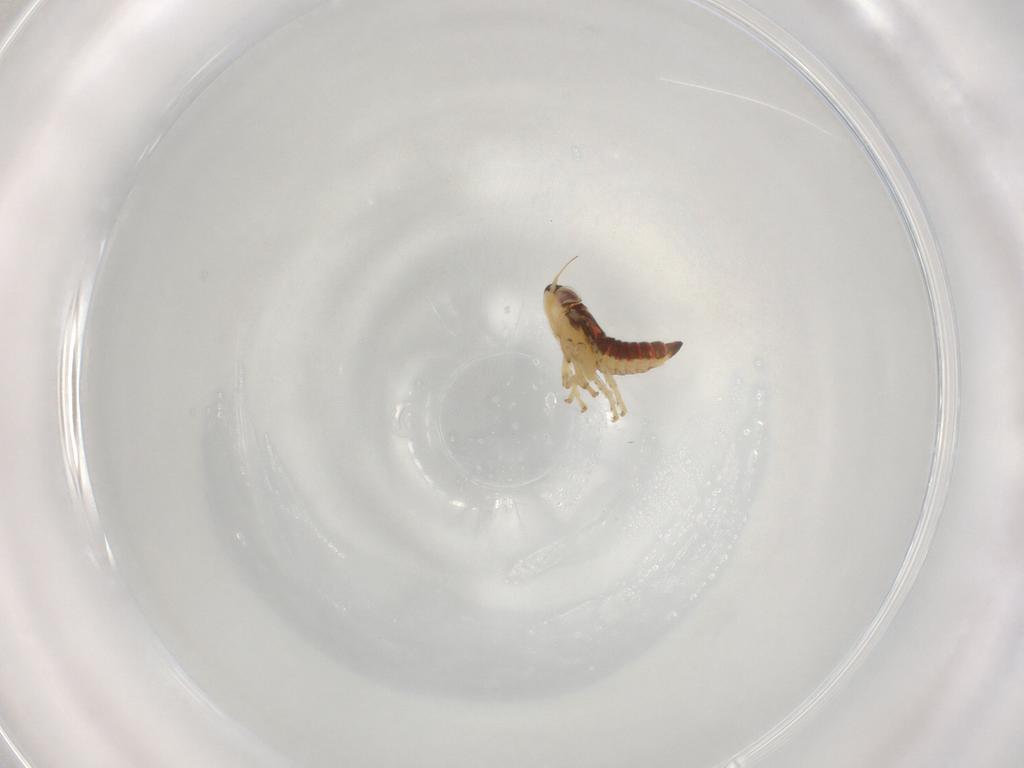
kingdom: Animalia
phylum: Arthropoda
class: Insecta
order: Hemiptera
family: Cicadellidae
